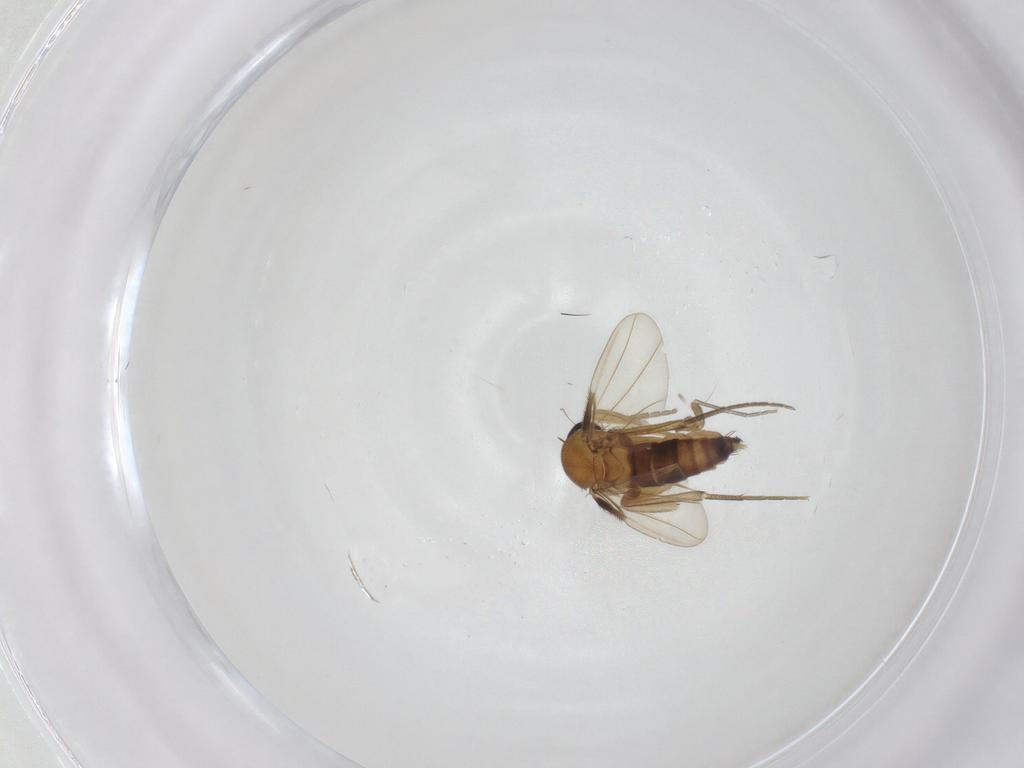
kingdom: Animalia
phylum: Arthropoda
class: Insecta
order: Diptera
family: Phoridae
